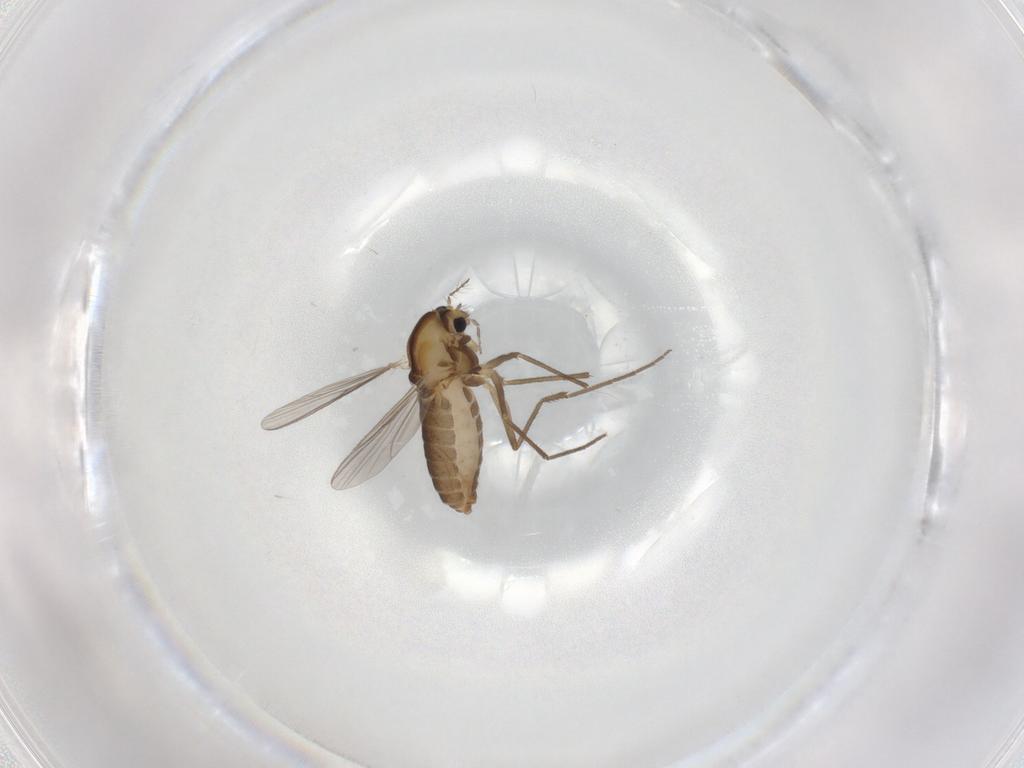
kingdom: Animalia
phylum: Arthropoda
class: Insecta
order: Diptera
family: Chironomidae
